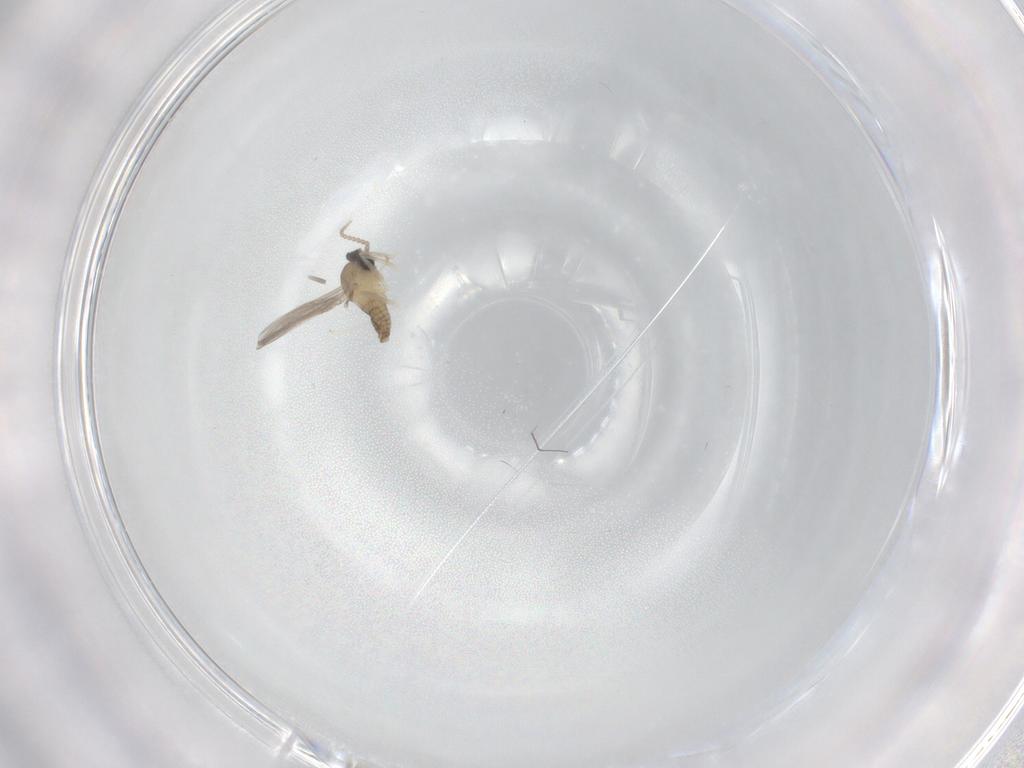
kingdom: Animalia
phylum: Arthropoda
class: Insecta
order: Diptera
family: Cecidomyiidae
